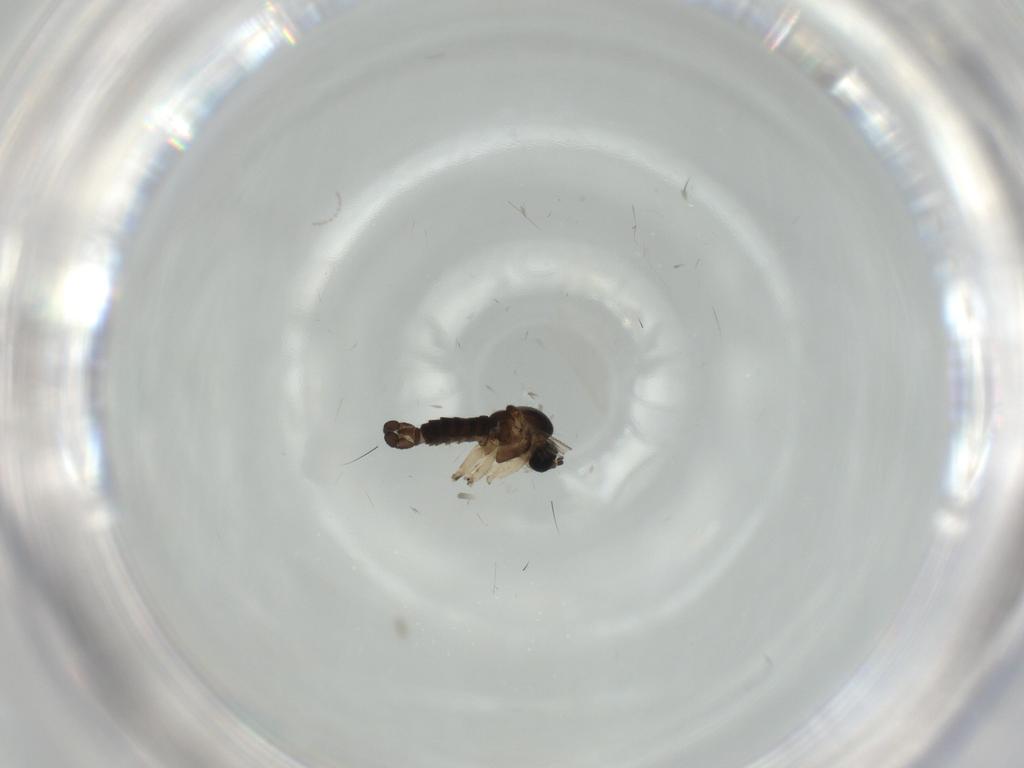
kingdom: Animalia
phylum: Arthropoda
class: Insecta
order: Diptera
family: Sciaridae
